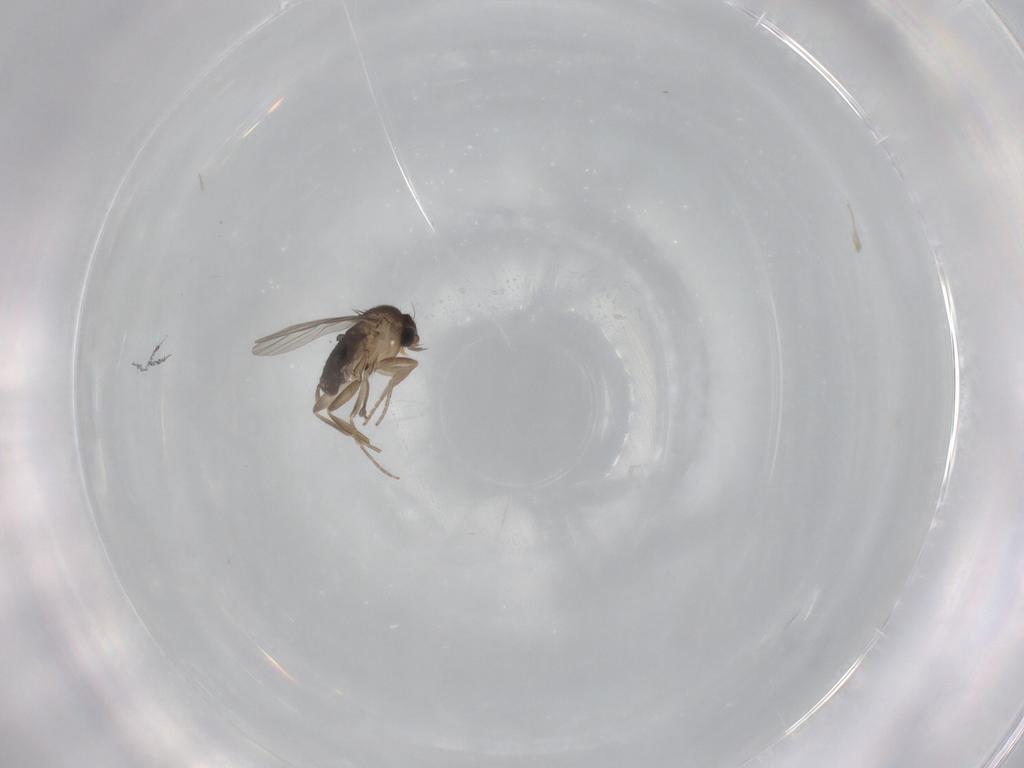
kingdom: Animalia
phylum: Arthropoda
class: Insecta
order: Diptera
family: Phoridae
